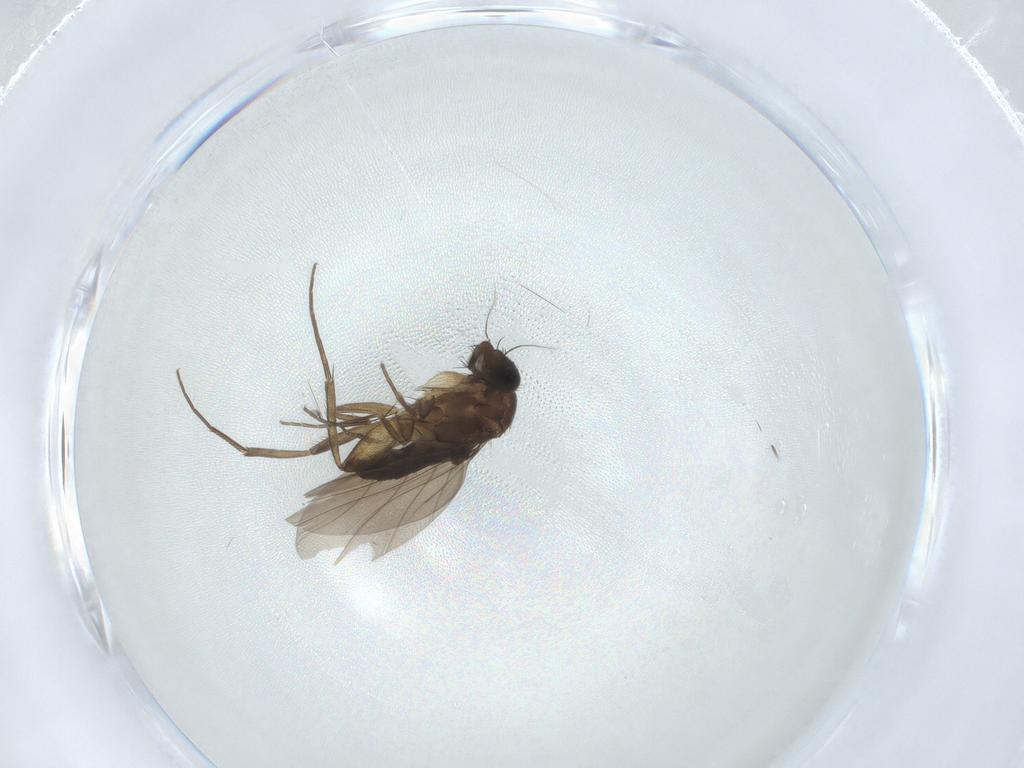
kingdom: Animalia
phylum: Arthropoda
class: Insecta
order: Diptera
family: Phoridae
